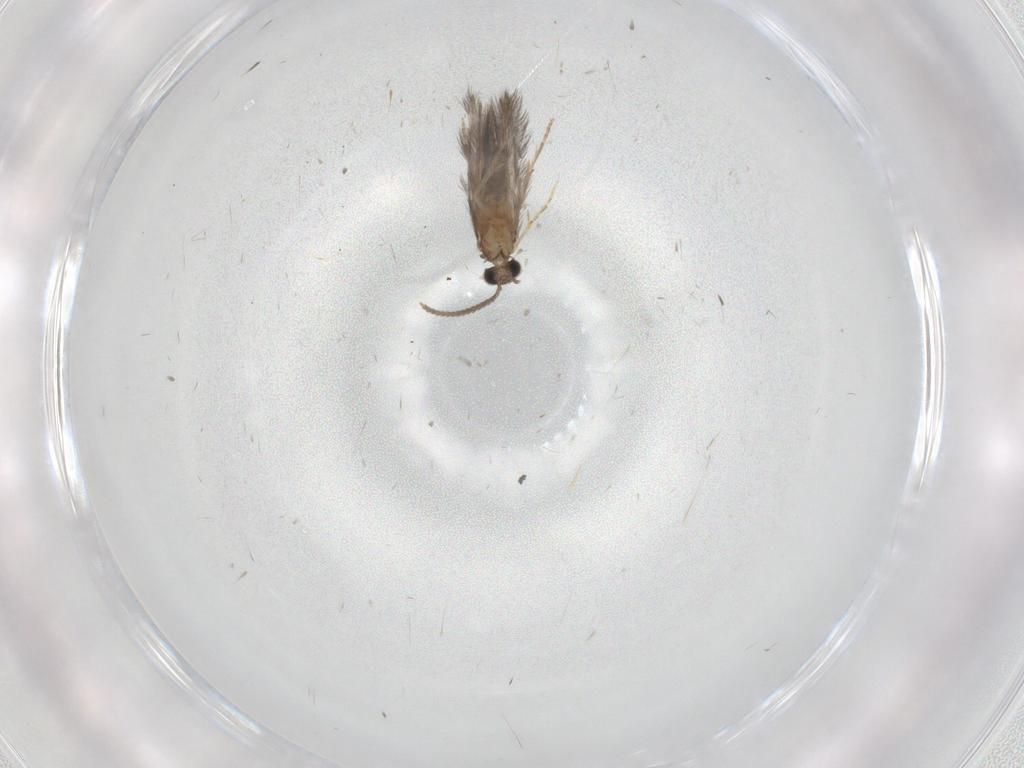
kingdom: Animalia
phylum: Arthropoda
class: Insecta
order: Trichoptera
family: Hydroptilidae
